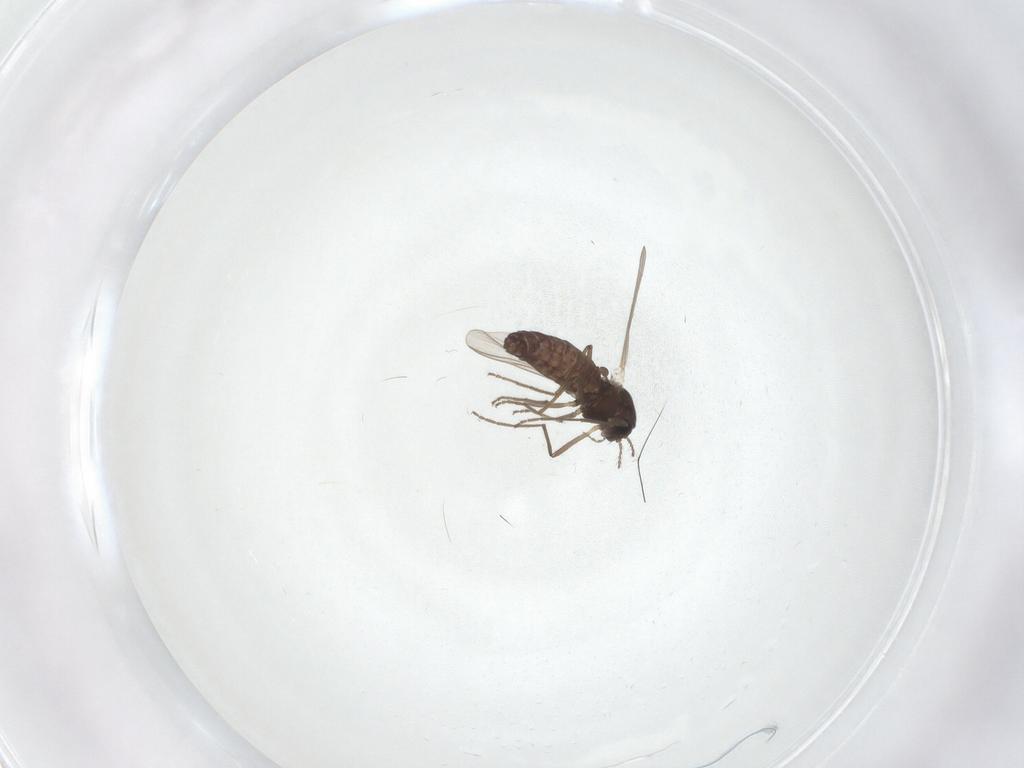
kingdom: Animalia
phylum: Arthropoda
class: Insecta
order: Diptera
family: Chironomidae
